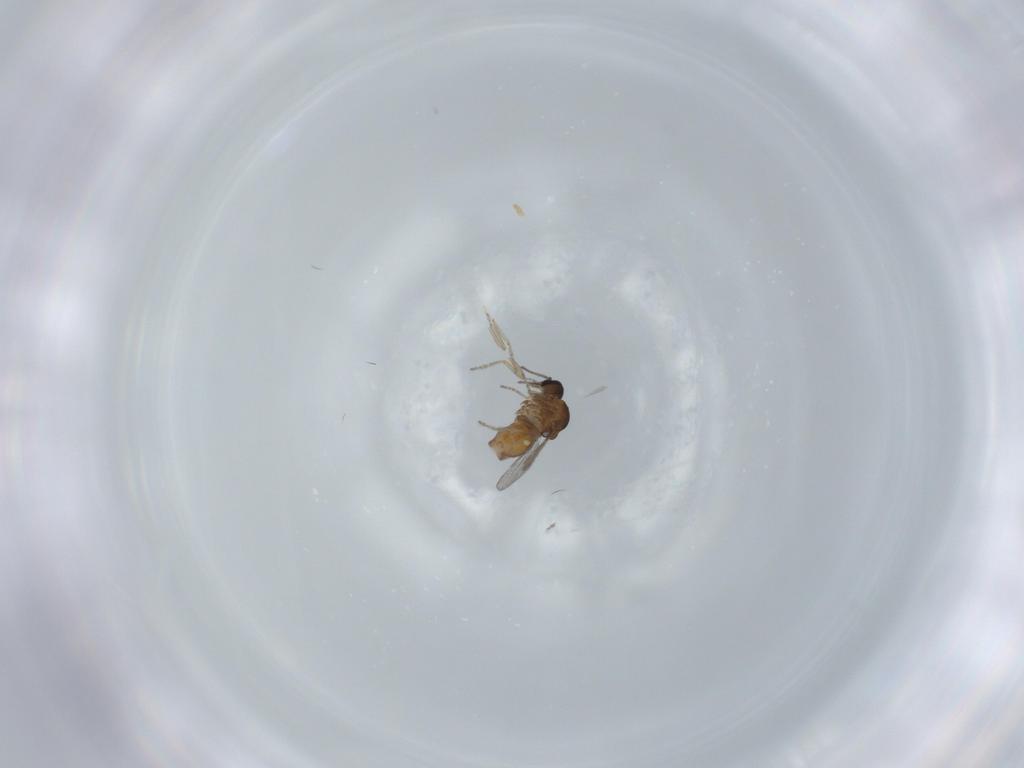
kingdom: Animalia
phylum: Arthropoda
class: Insecta
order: Diptera
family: Ceratopogonidae
